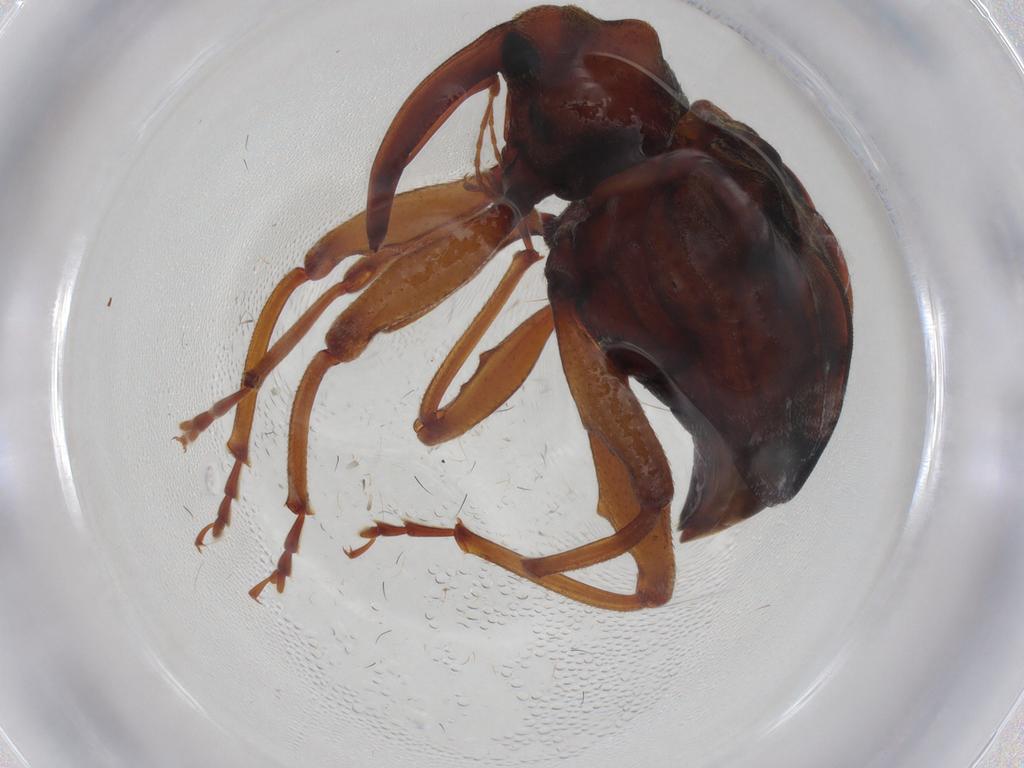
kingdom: Animalia
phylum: Arthropoda
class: Insecta
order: Coleoptera
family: Curculionidae
